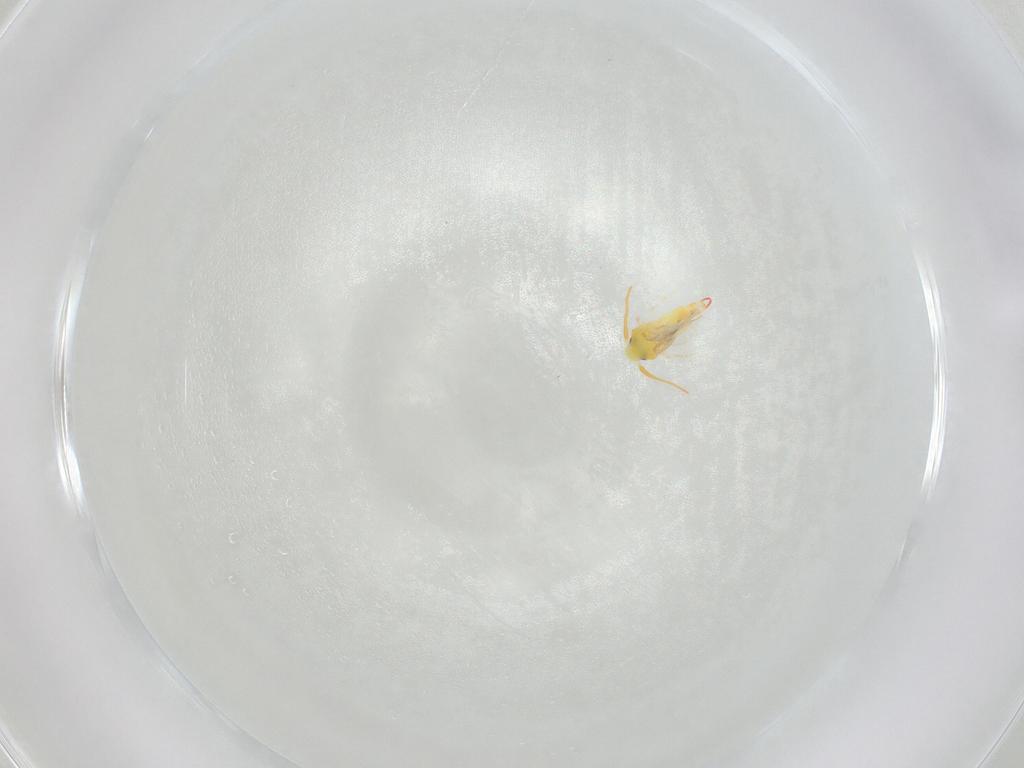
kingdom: Animalia
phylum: Arthropoda
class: Insecta
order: Hemiptera
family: Aleyrodidae
